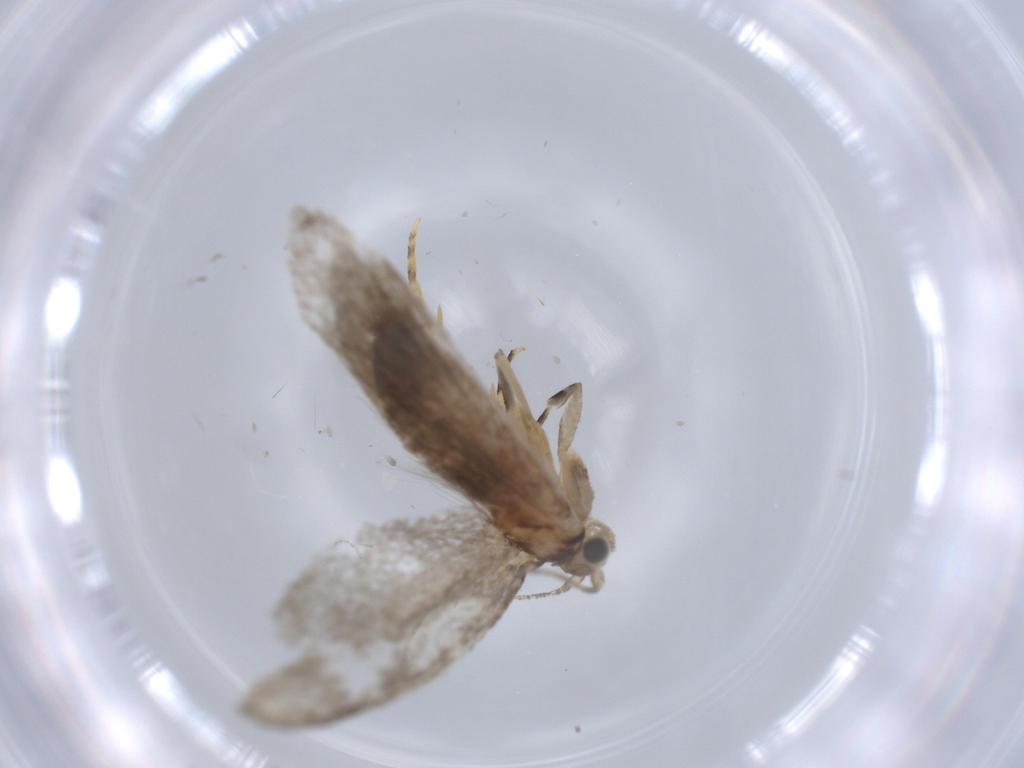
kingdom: Animalia
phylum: Arthropoda
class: Insecta
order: Lepidoptera
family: Tineidae
